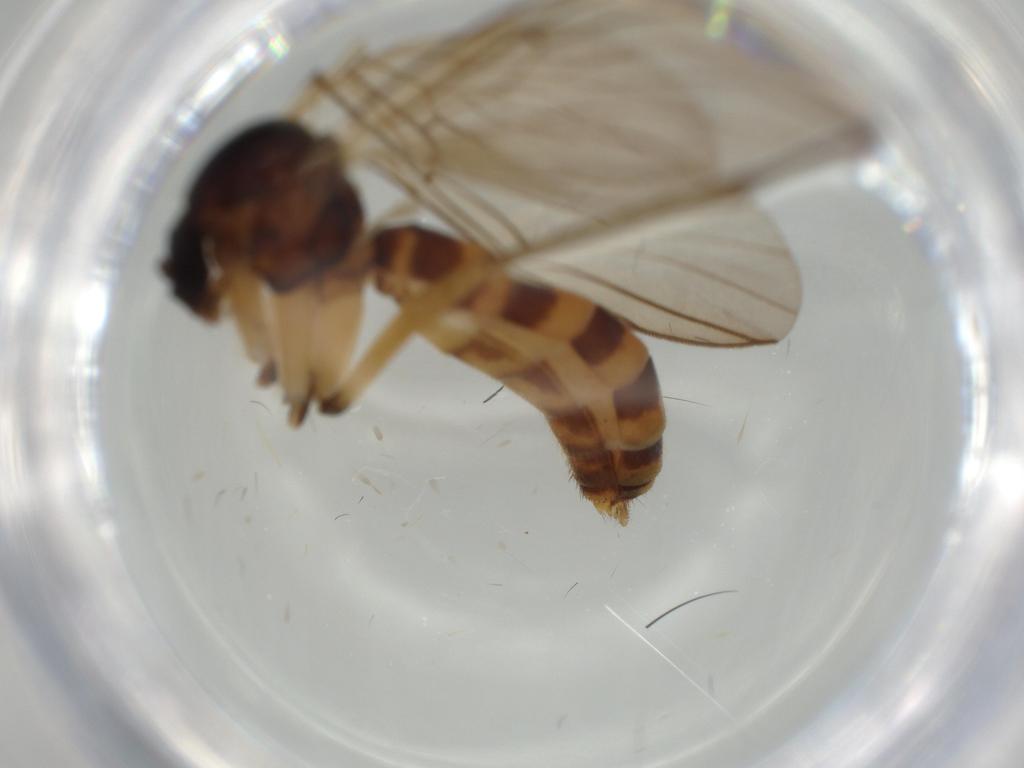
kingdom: Animalia
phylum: Arthropoda
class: Insecta
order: Diptera
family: Mycetophilidae
